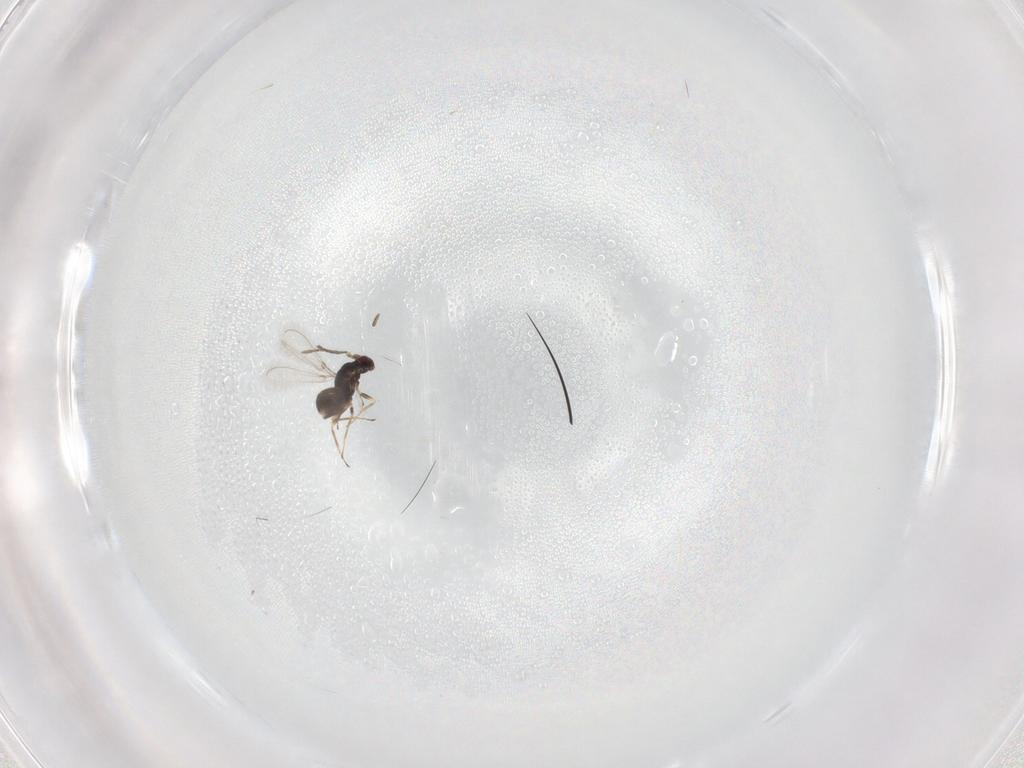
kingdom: Animalia
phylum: Arthropoda
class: Insecta
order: Hymenoptera
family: Mymaridae
